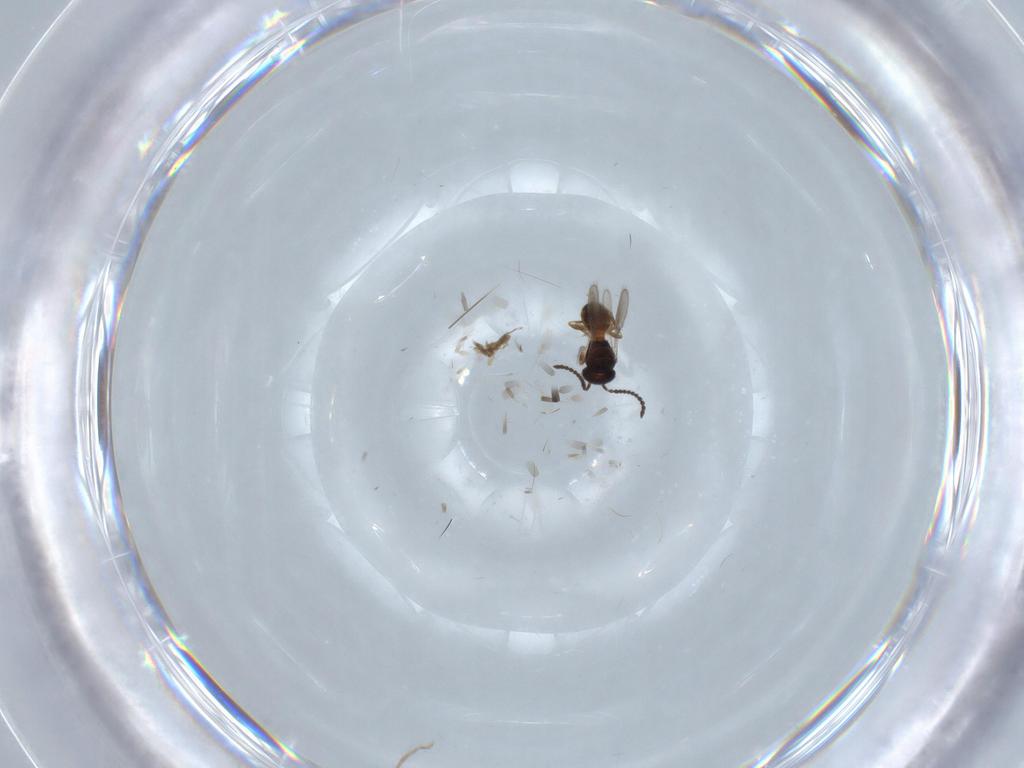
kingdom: Animalia
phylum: Arthropoda
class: Insecta
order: Hymenoptera
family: Scelionidae
